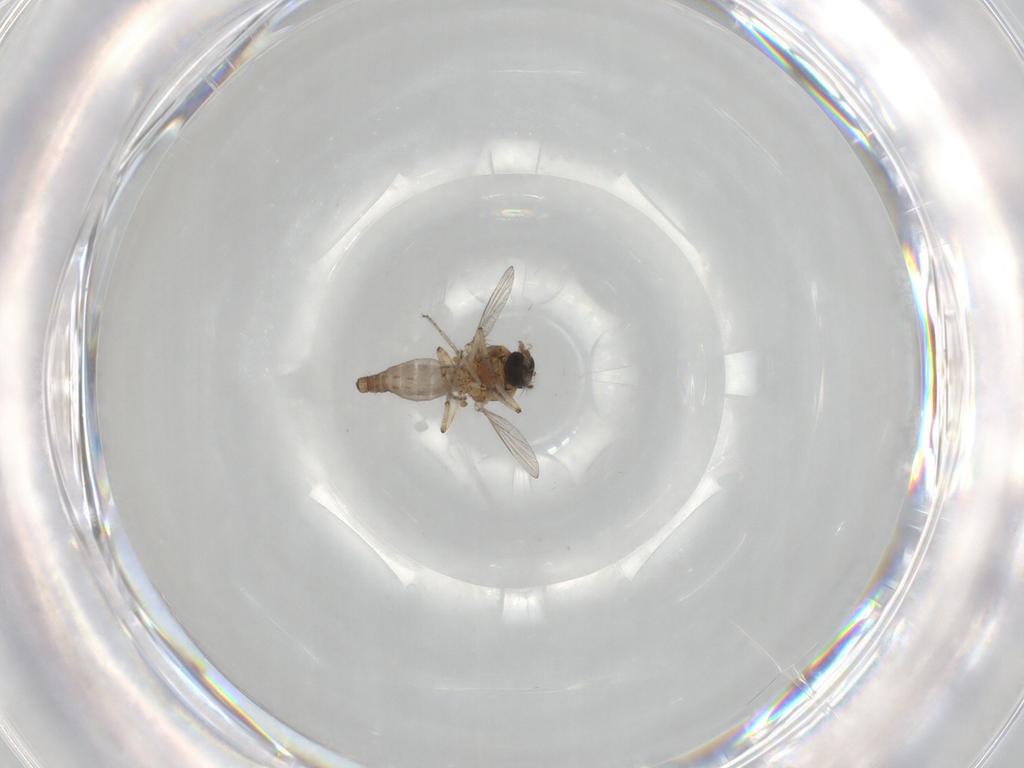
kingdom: Animalia
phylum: Arthropoda
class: Insecta
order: Diptera
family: Ceratopogonidae
